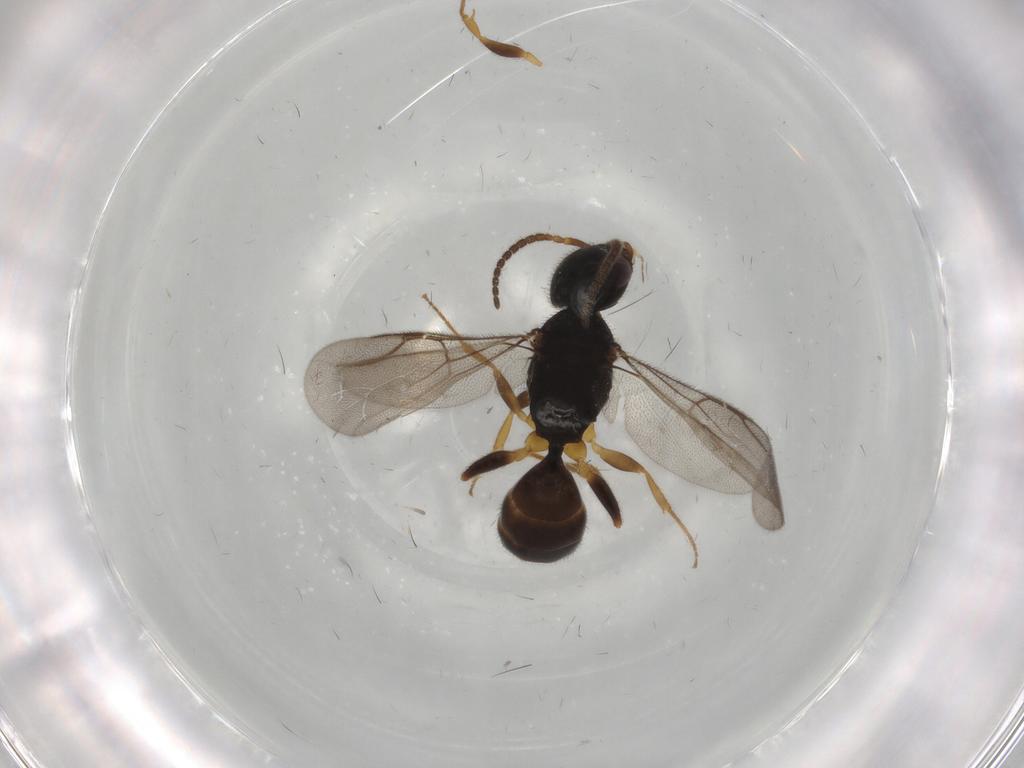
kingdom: Animalia
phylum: Arthropoda
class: Insecta
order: Hymenoptera
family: Bethylidae
